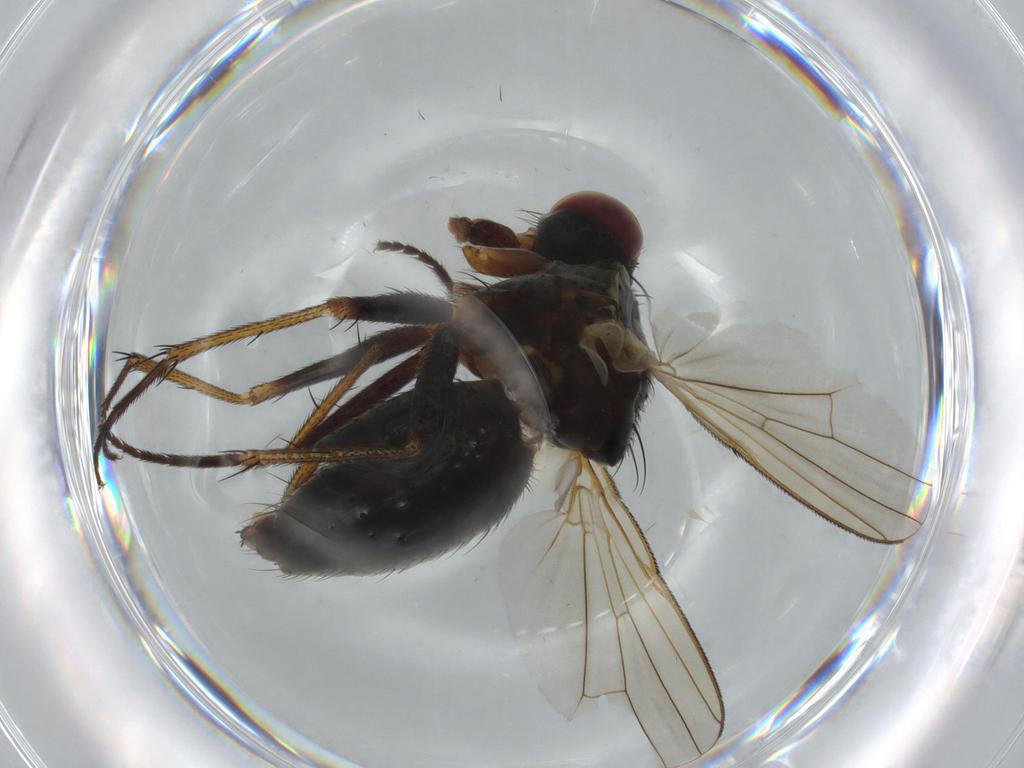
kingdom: Animalia
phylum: Arthropoda
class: Insecta
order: Diptera
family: Muscidae
